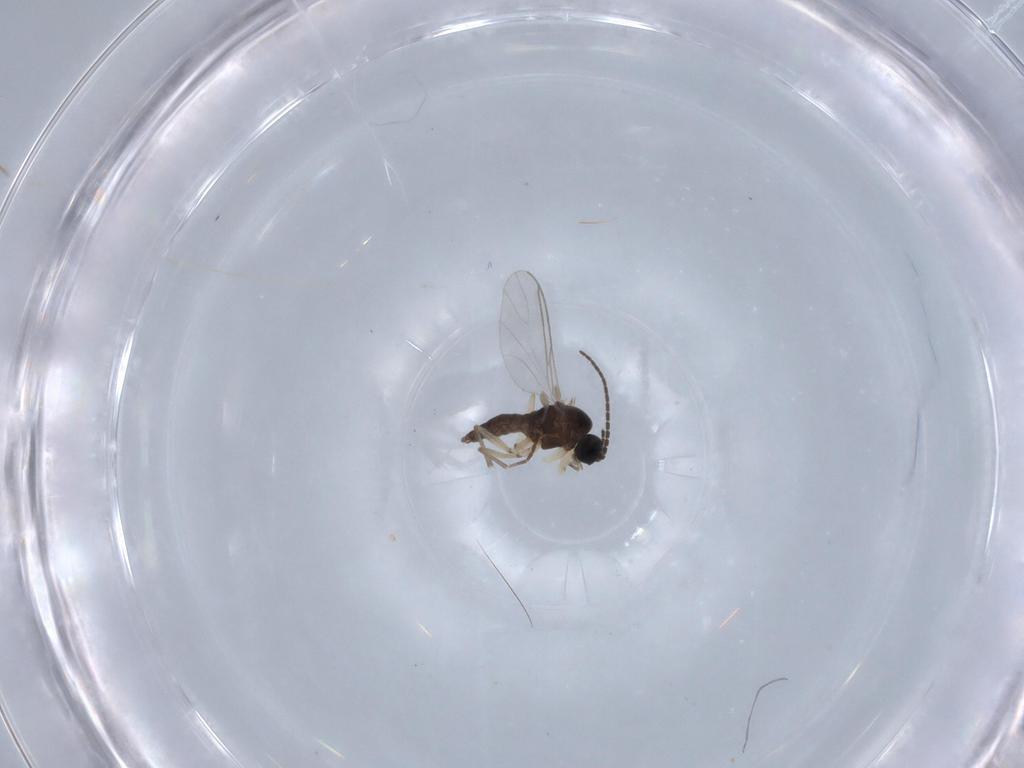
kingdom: Animalia
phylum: Arthropoda
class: Insecta
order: Diptera
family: Sciaridae
